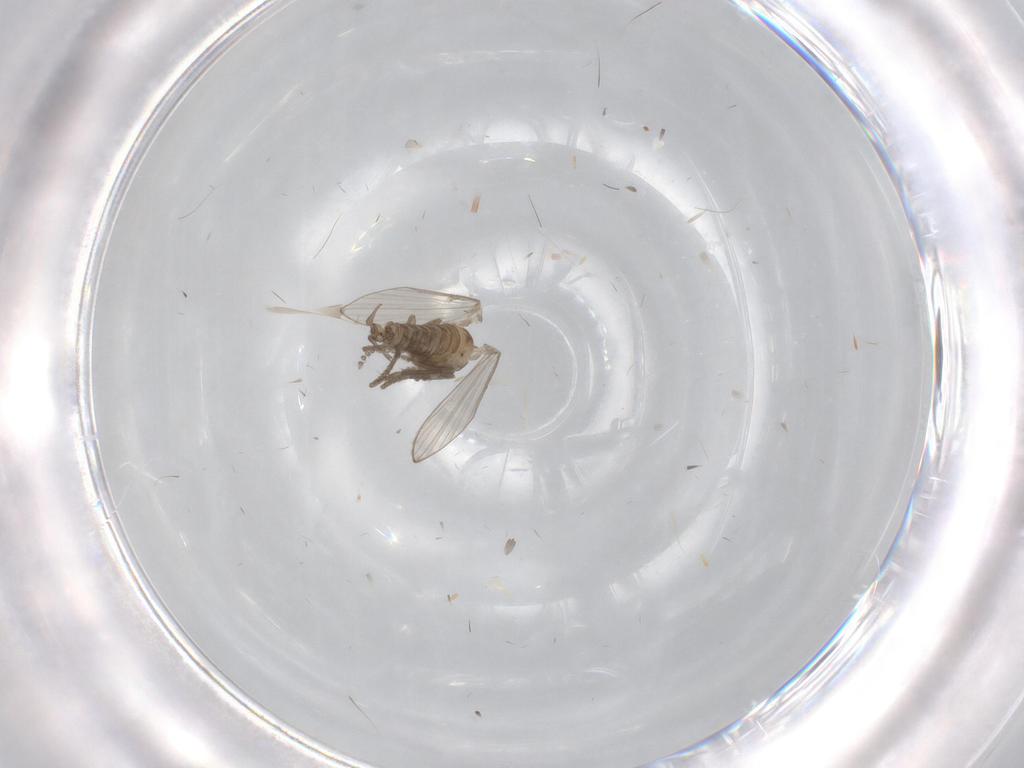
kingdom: Animalia
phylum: Arthropoda
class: Insecta
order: Diptera
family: Psychodidae
